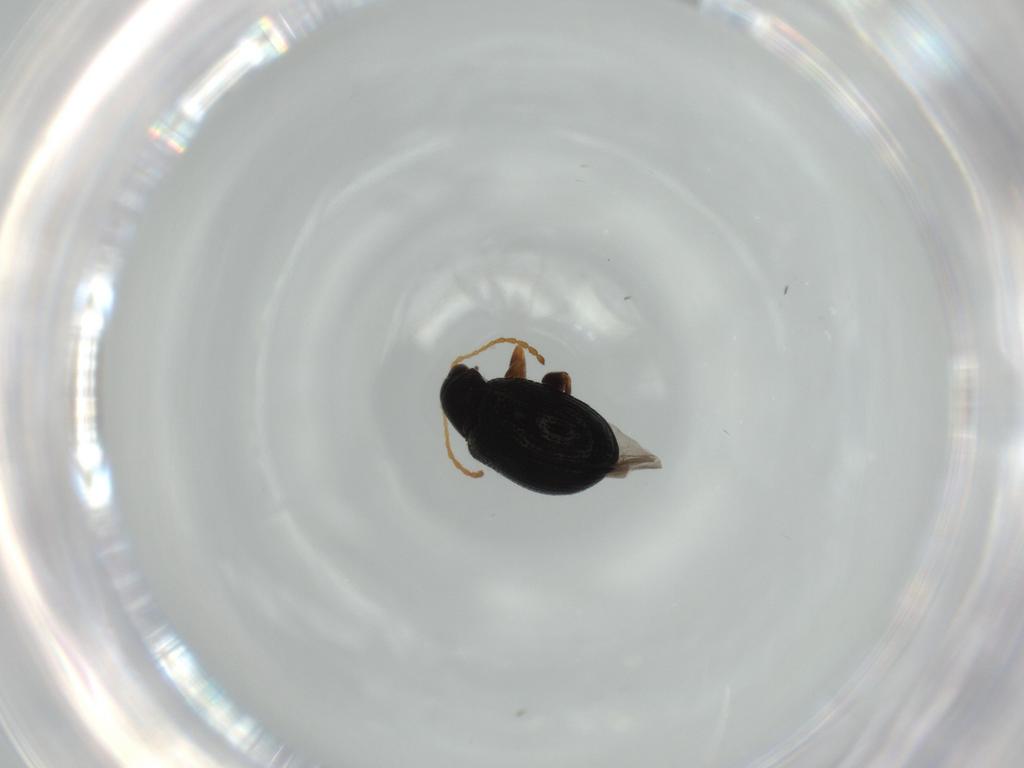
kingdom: Animalia
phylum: Arthropoda
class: Insecta
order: Coleoptera
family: Chrysomelidae
